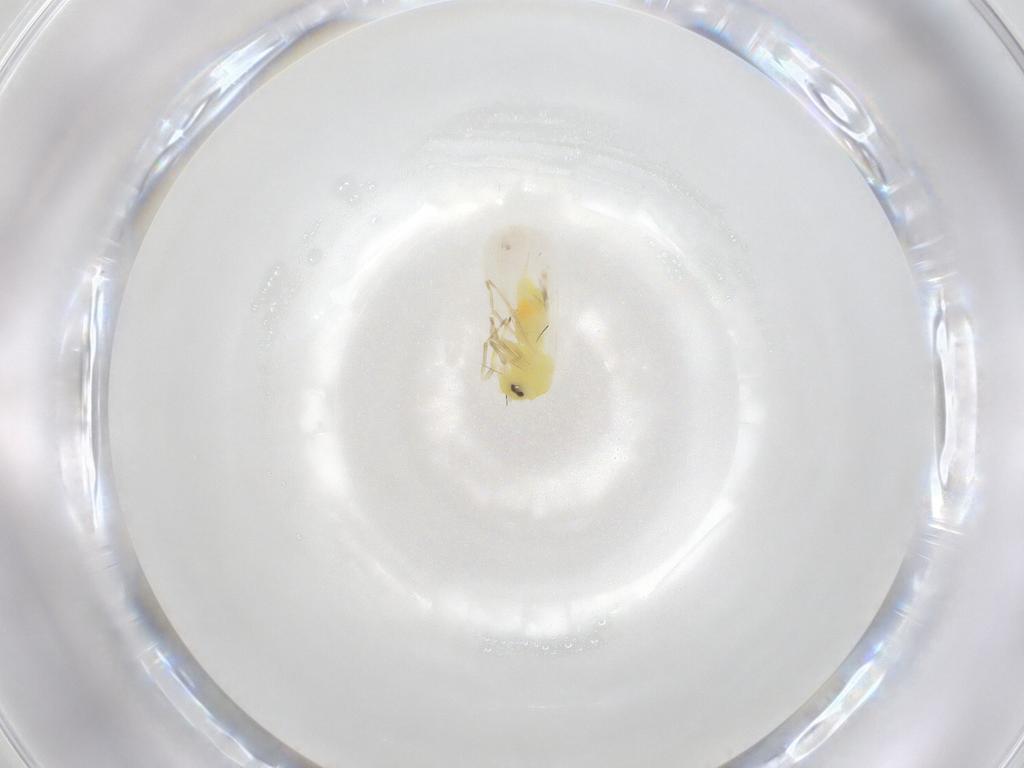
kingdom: Animalia
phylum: Arthropoda
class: Insecta
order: Hemiptera
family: Aleyrodidae
